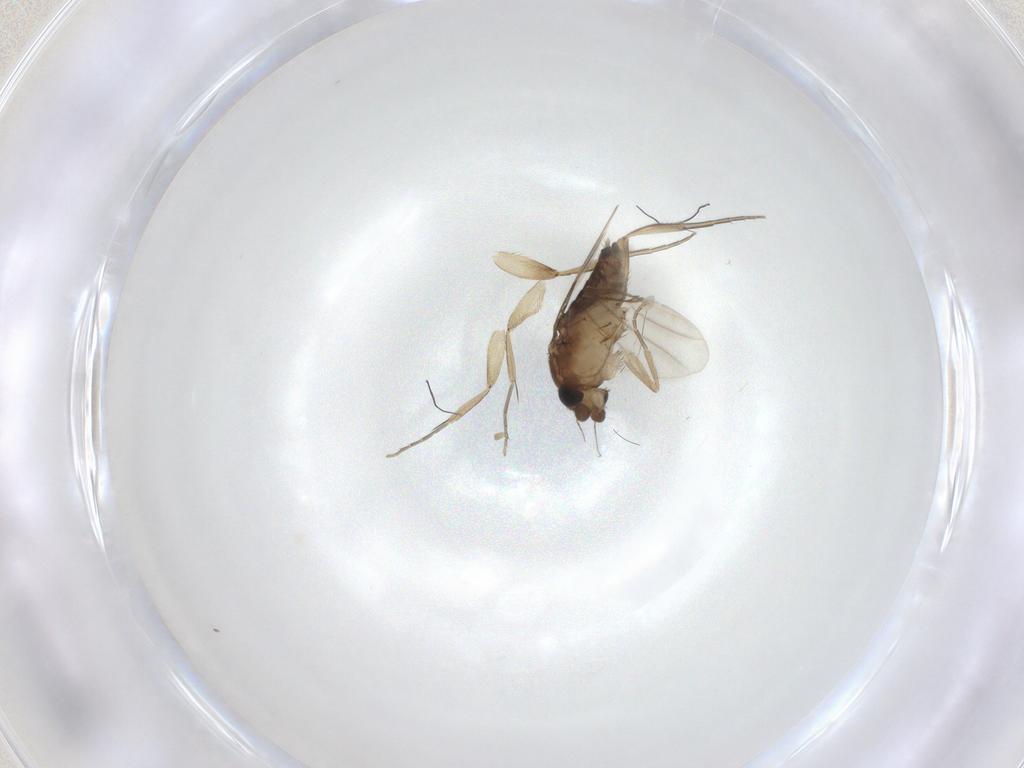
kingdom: Animalia
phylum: Arthropoda
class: Insecta
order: Diptera
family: Phoridae
